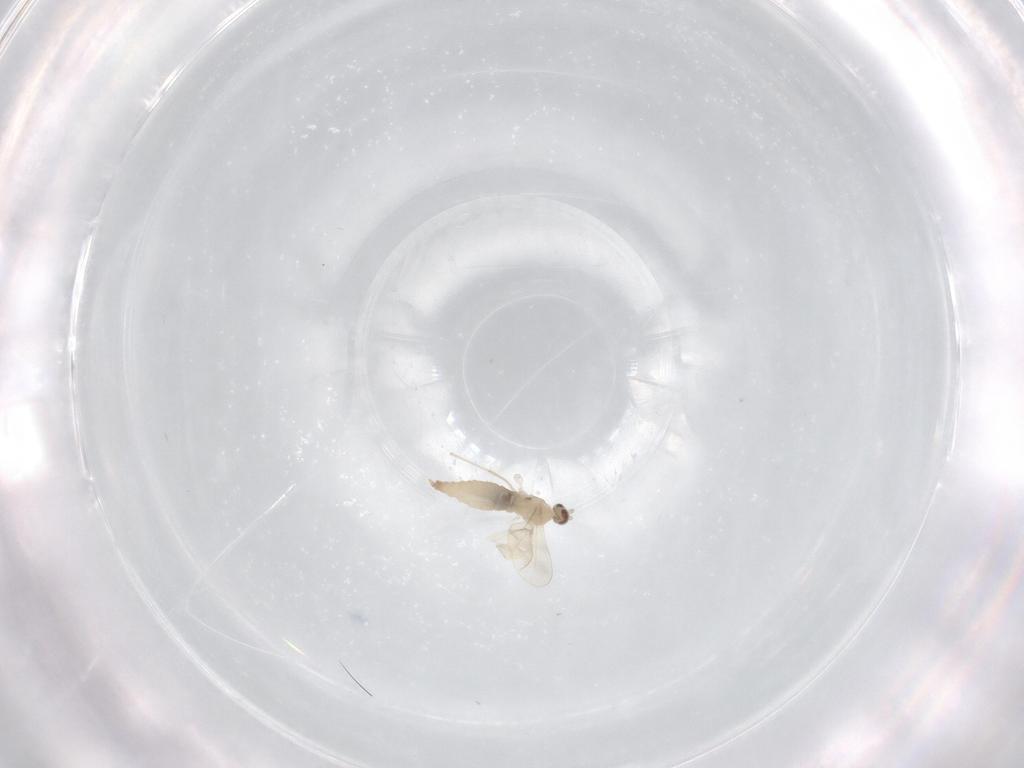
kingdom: Animalia
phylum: Arthropoda
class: Insecta
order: Diptera
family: Cecidomyiidae
